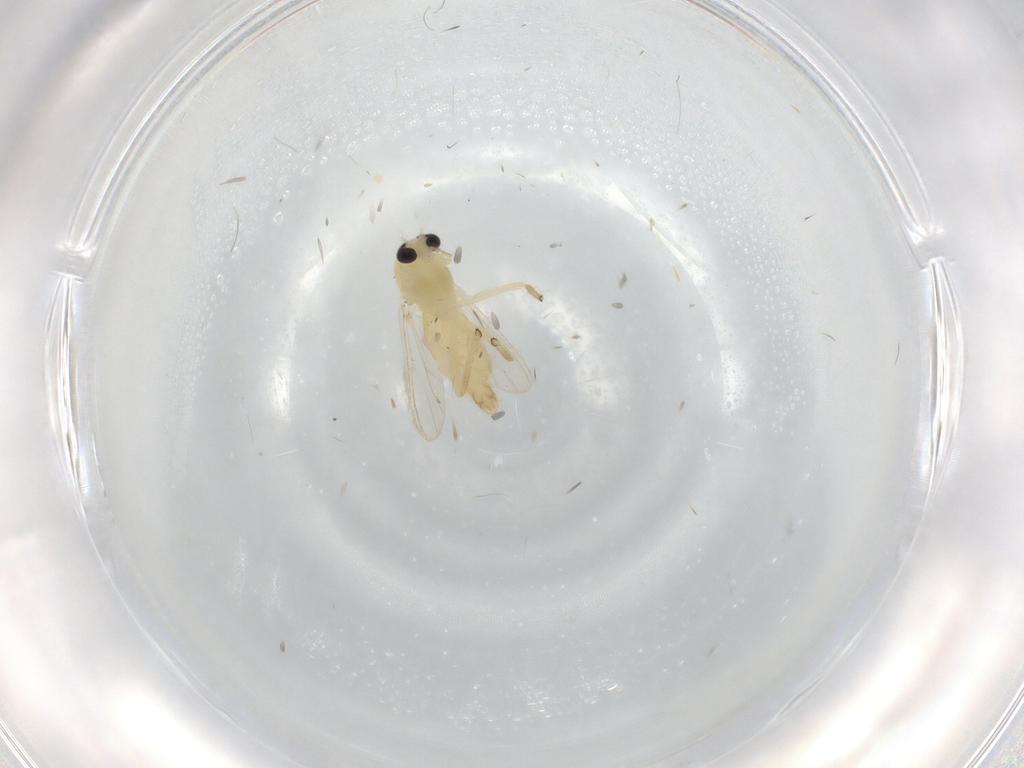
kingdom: Animalia
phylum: Arthropoda
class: Insecta
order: Diptera
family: Chironomidae
